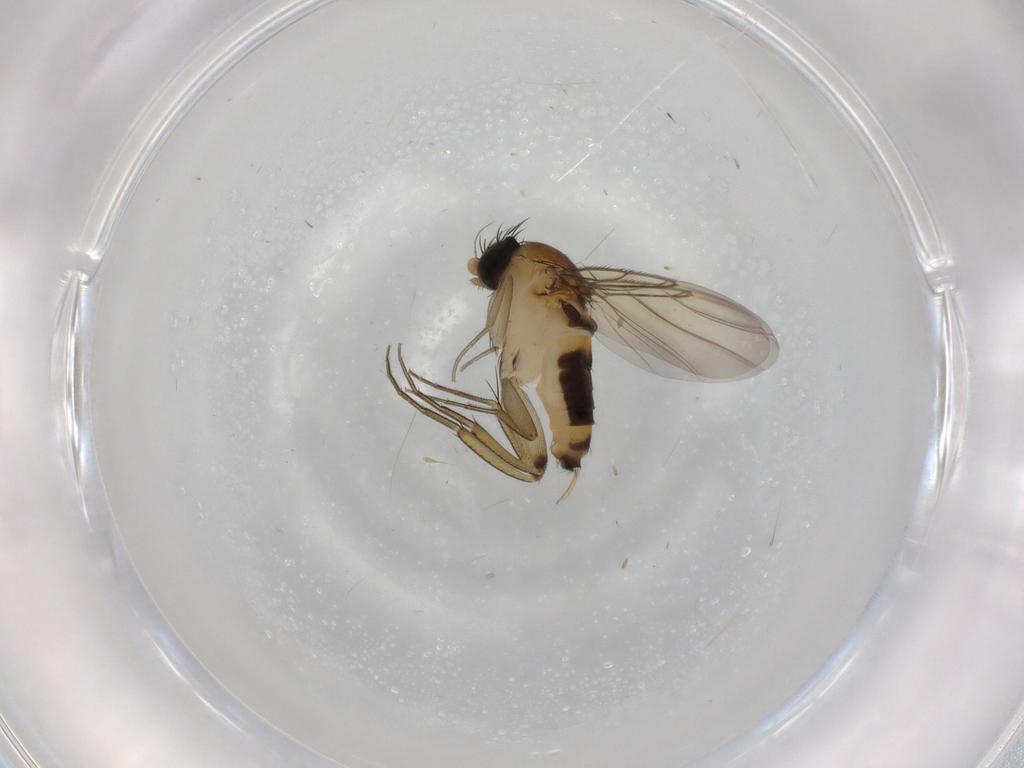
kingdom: Animalia
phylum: Arthropoda
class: Insecta
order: Diptera
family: Phoridae
